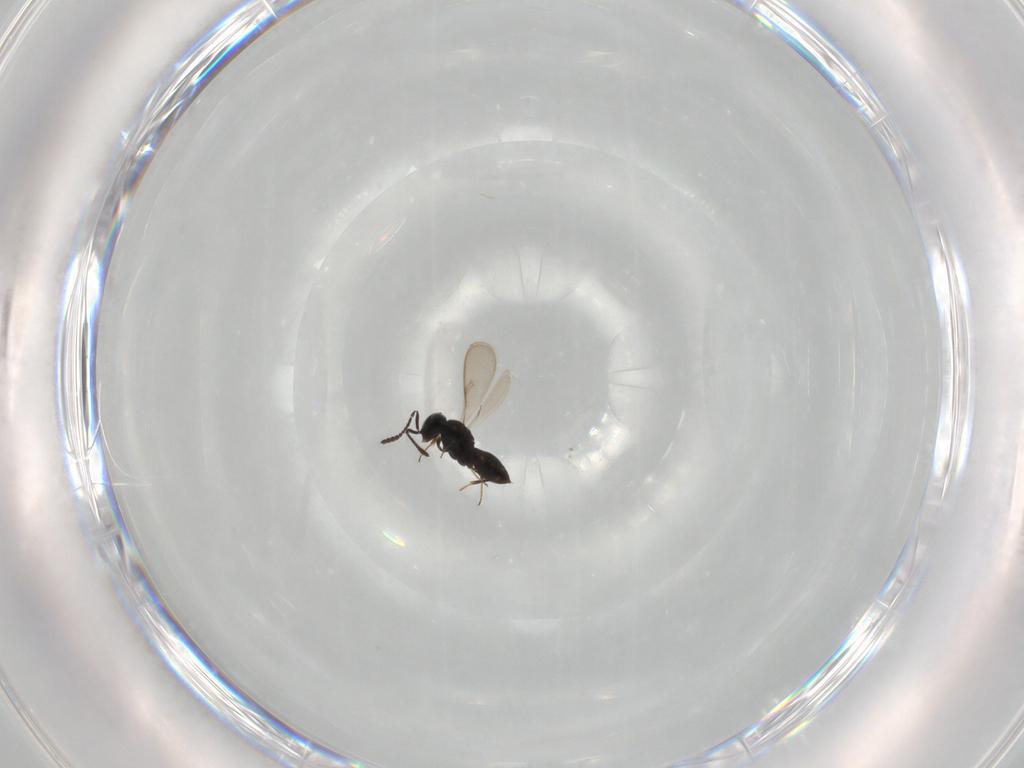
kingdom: Animalia
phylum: Arthropoda
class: Insecta
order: Hymenoptera
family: Scelionidae
